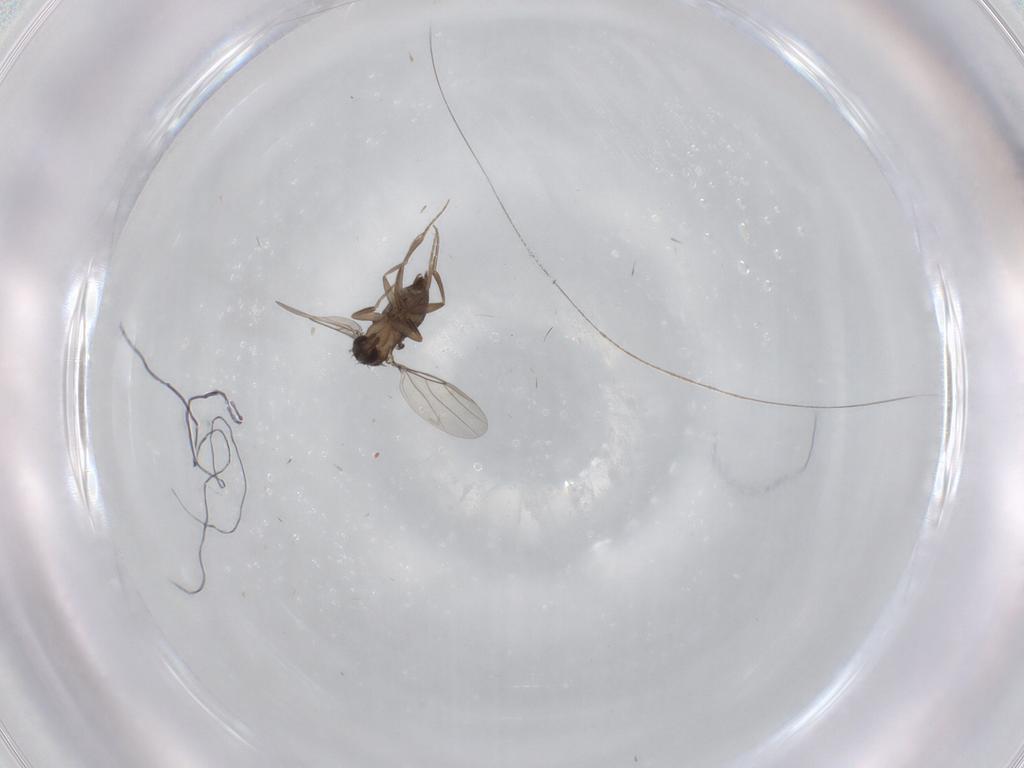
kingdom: Animalia
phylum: Arthropoda
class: Insecta
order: Diptera
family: Phoridae
